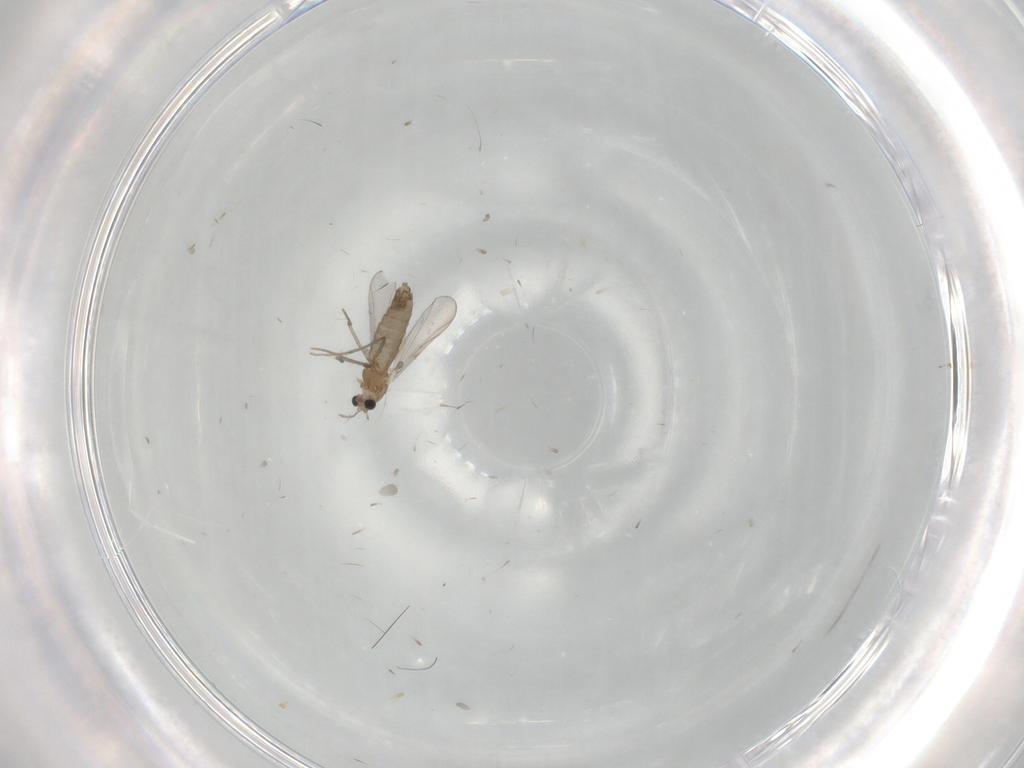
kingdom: Animalia
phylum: Arthropoda
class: Insecta
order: Diptera
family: Chironomidae
